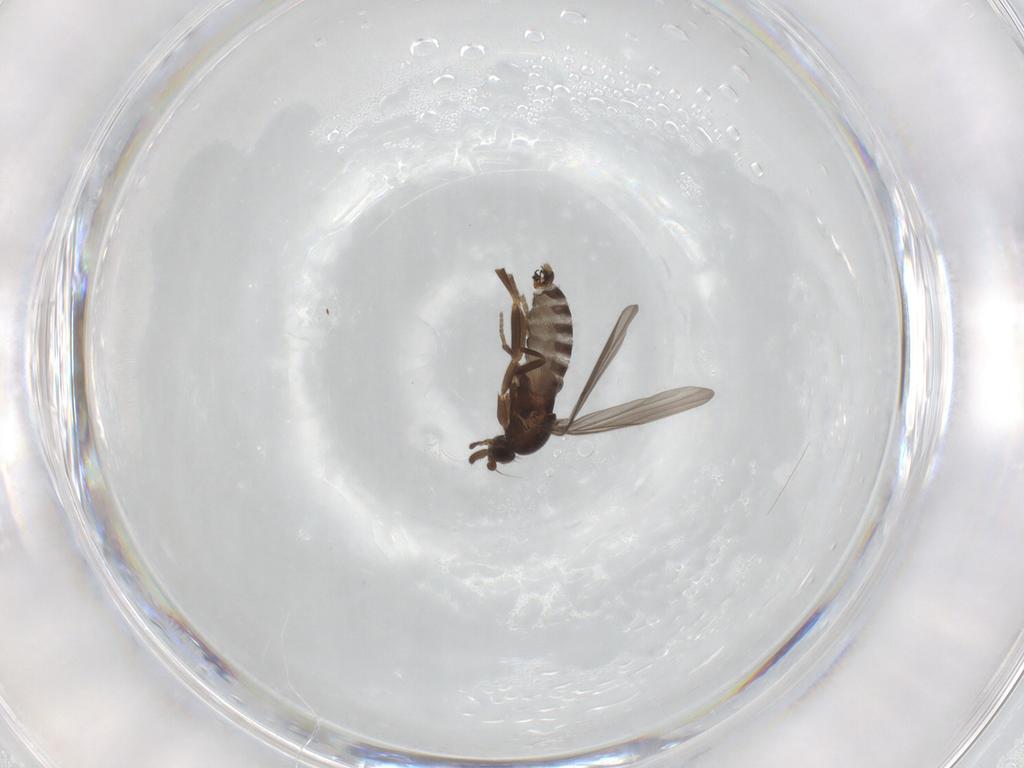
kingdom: Animalia
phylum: Arthropoda
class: Insecta
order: Diptera
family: Phoridae
